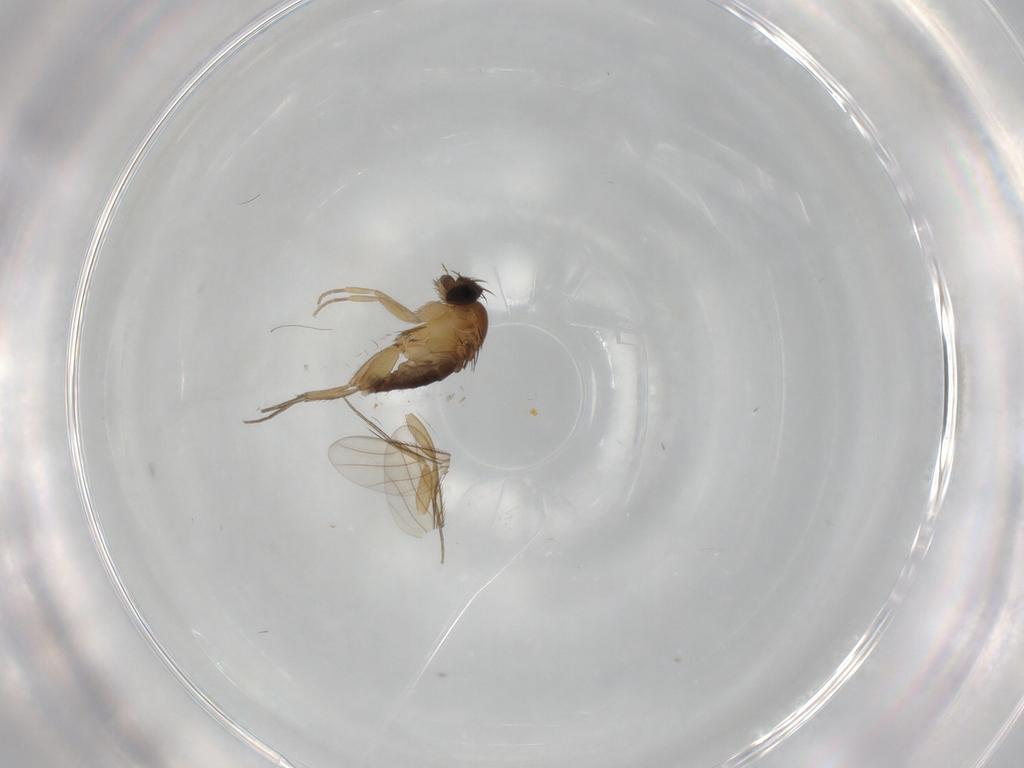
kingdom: Animalia
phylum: Arthropoda
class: Insecta
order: Diptera
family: Phoridae
